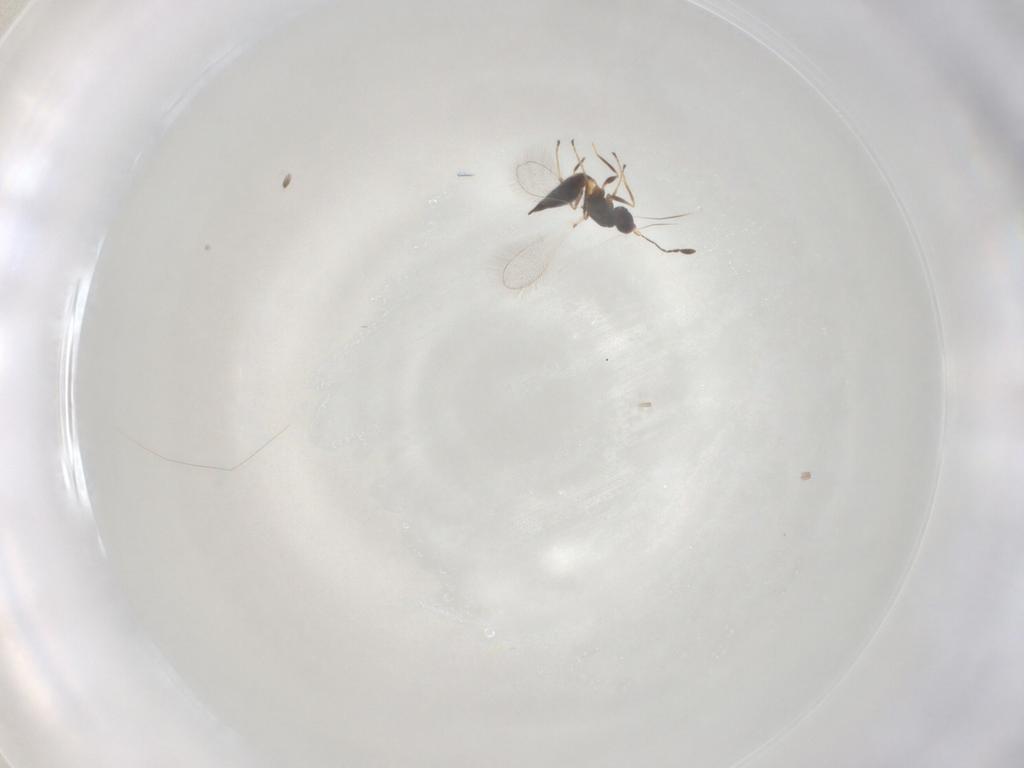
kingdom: Animalia
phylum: Arthropoda
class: Insecta
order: Hymenoptera
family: Mymaridae
